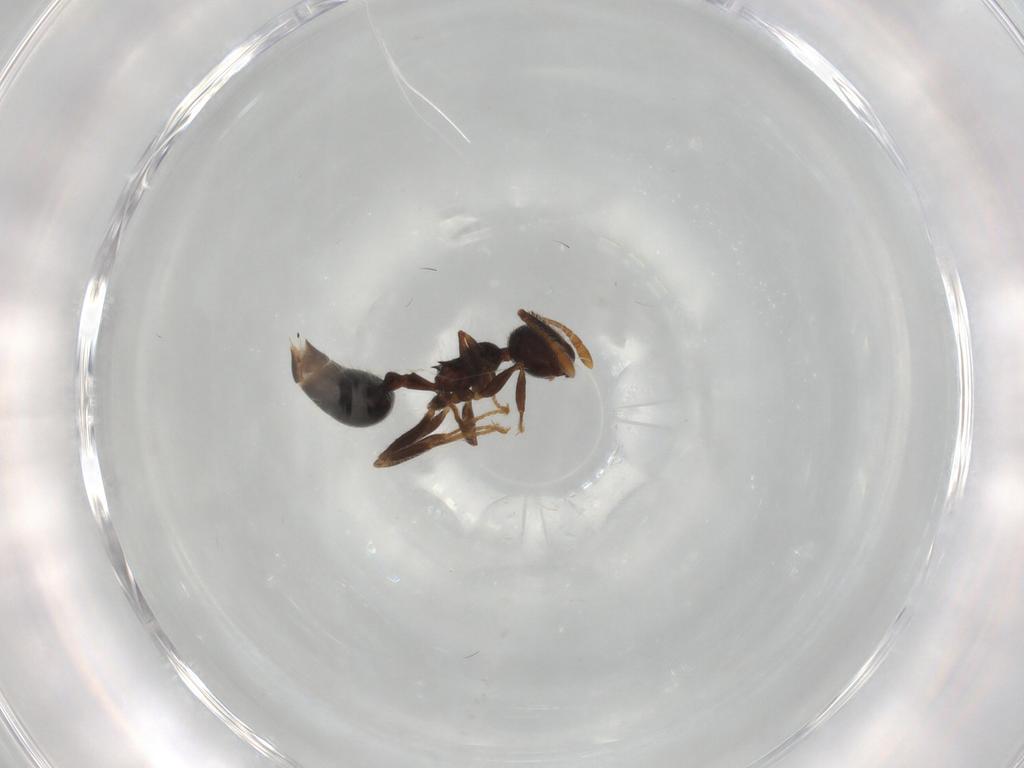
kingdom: Animalia
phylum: Arthropoda
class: Insecta
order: Hymenoptera
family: Formicidae
